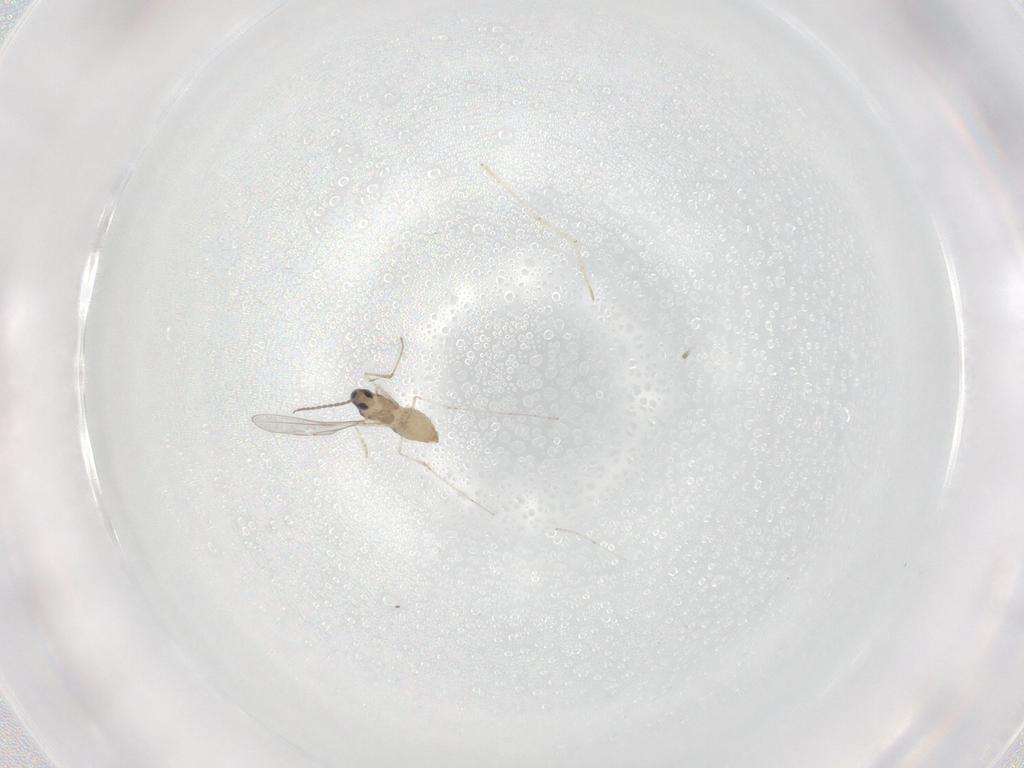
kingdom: Animalia
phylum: Arthropoda
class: Insecta
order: Diptera
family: Cecidomyiidae
